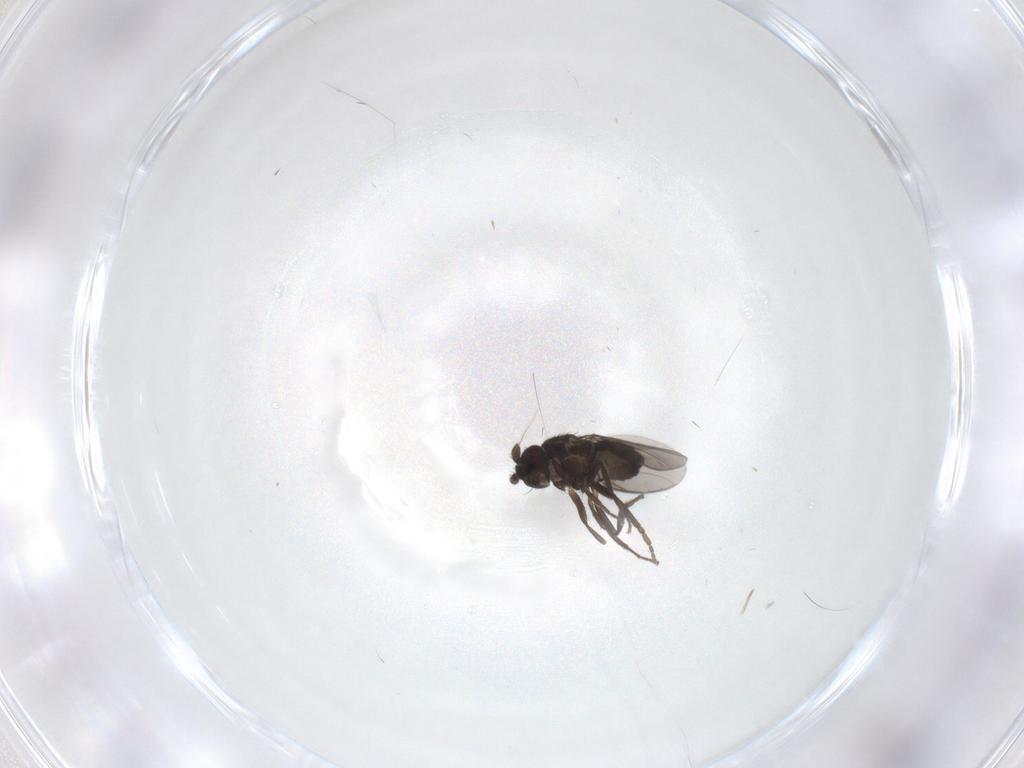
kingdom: Animalia
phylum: Arthropoda
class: Insecta
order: Diptera
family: Sphaeroceridae
